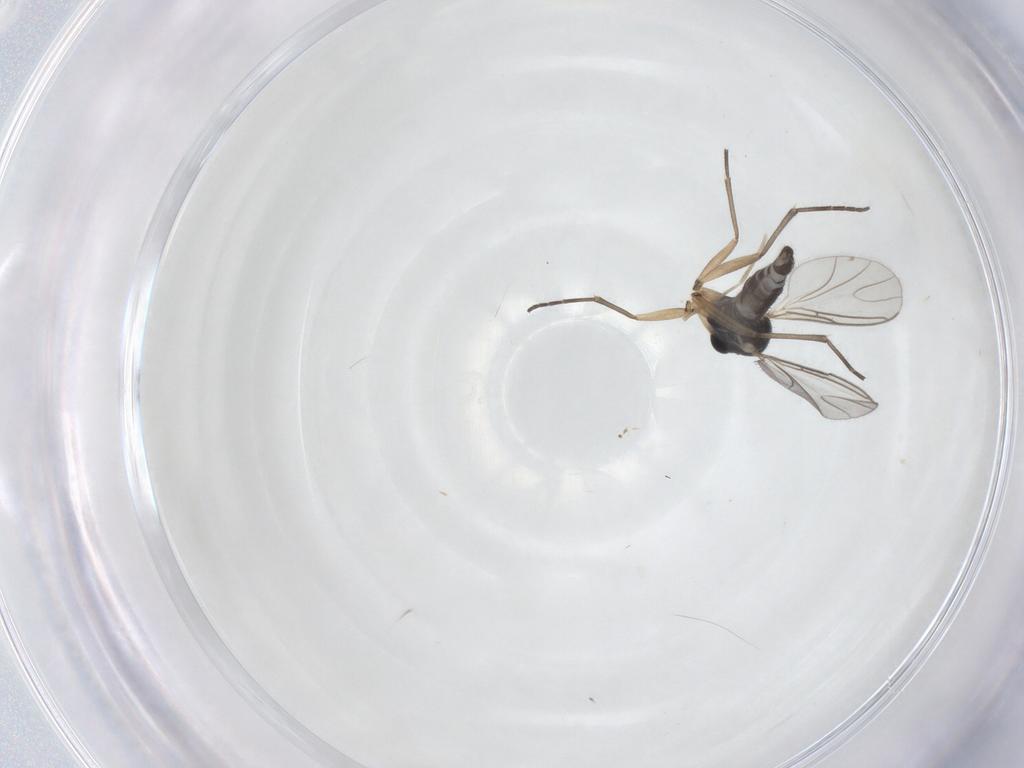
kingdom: Animalia
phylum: Arthropoda
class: Insecta
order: Diptera
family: Sciaridae
